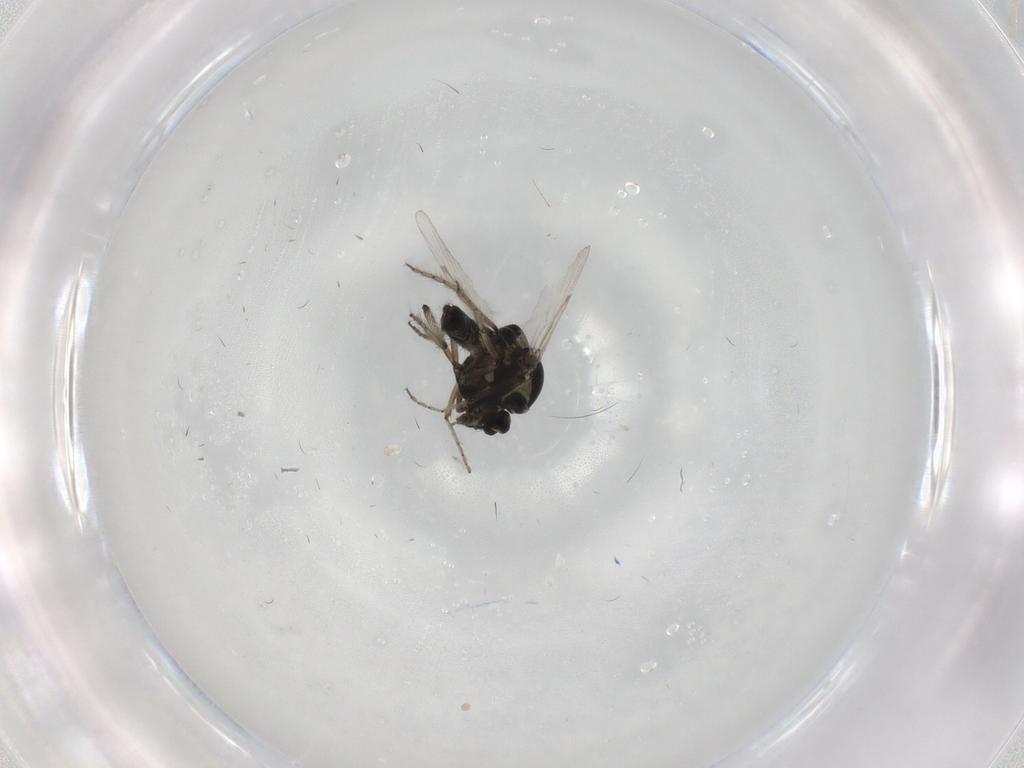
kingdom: Animalia
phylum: Arthropoda
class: Insecta
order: Diptera
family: Ceratopogonidae
